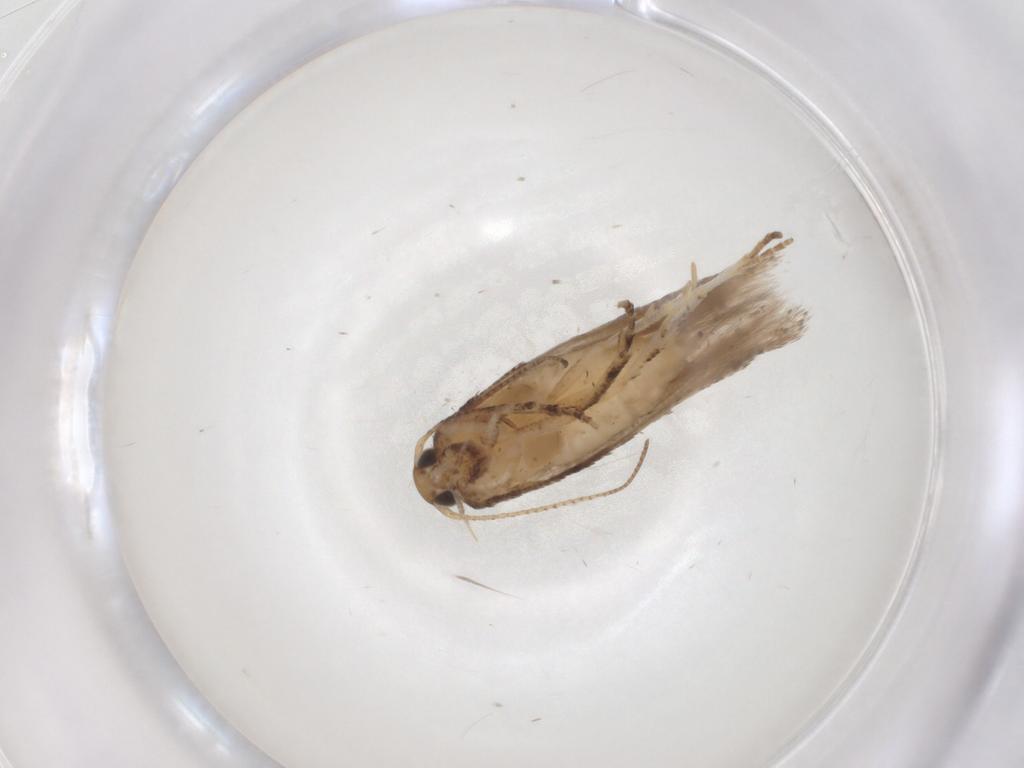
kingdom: Animalia
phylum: Arthropoda
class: Insecta
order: Lepidoptera
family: Gelechiidae
